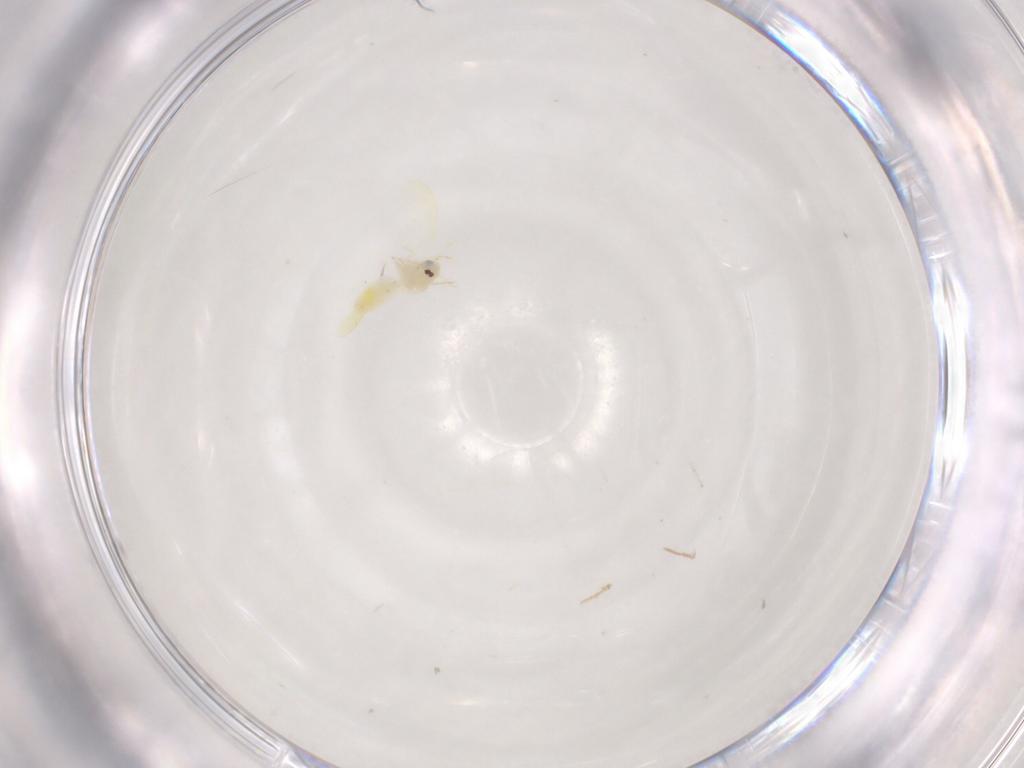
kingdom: Animalia
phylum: Arthropoda
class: Insecta
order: Hemiptera
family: Aleyrodidae
